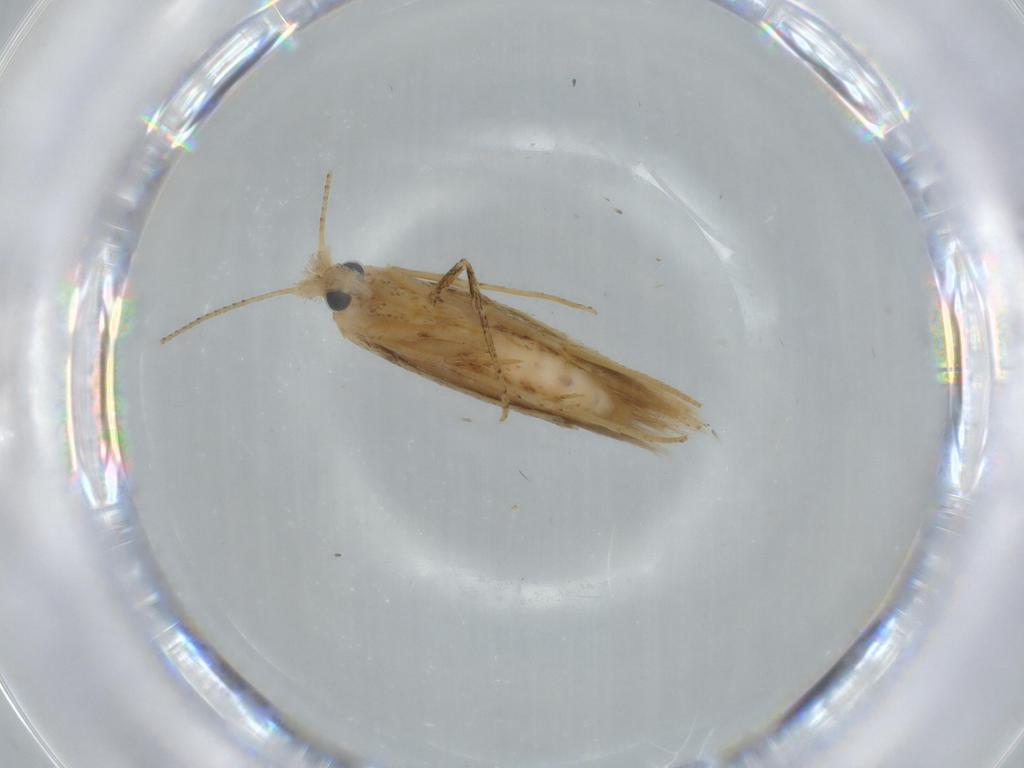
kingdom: Animalia
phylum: Arthropoda
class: Insecta
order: Lepidoptera
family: Bedelliidae
